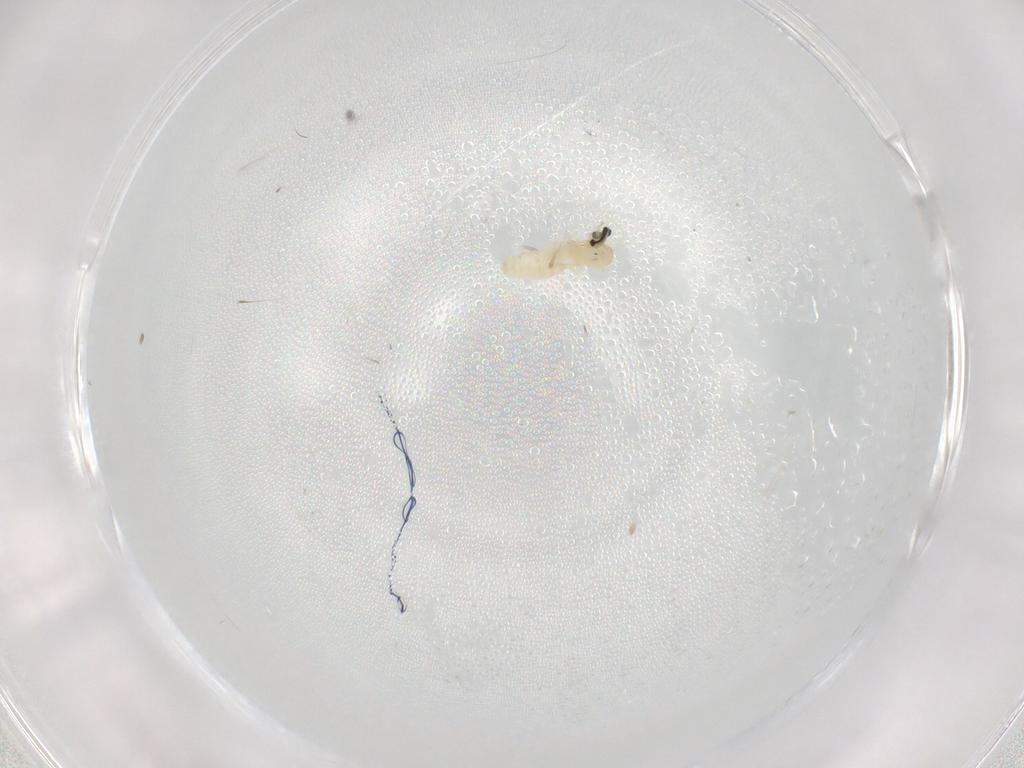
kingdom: Animalia
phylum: Arthropoda
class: Insecta
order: Diptera
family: Cecidomyiidae
